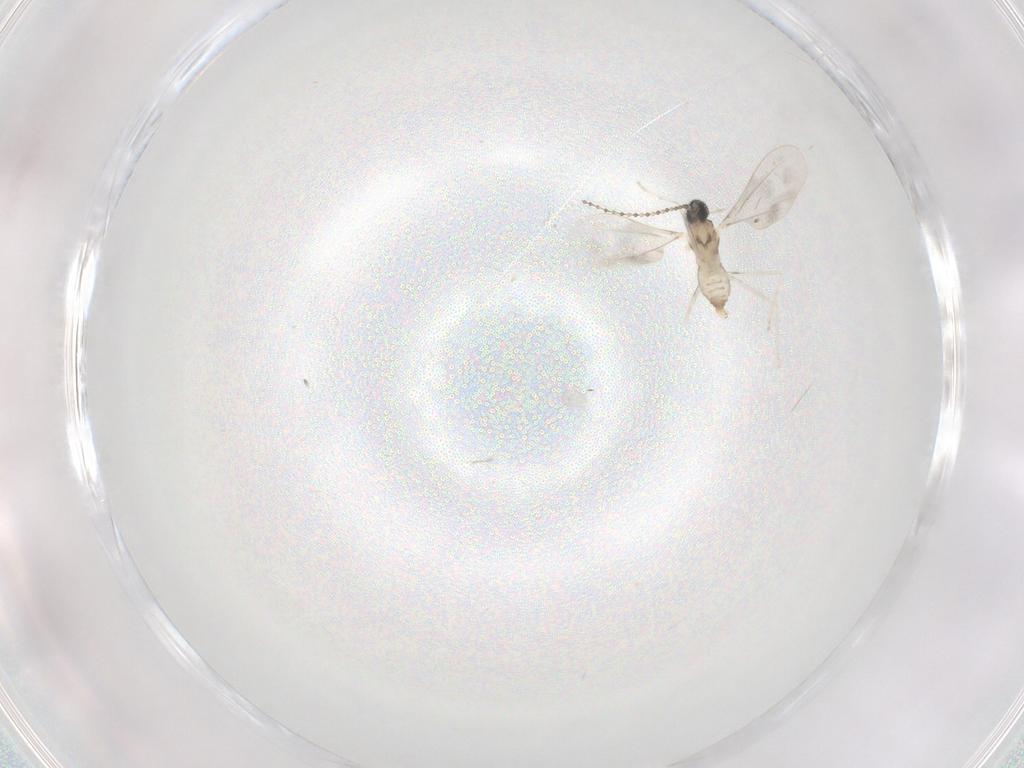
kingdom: Animalia
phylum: Arthropoda
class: Insecta
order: Diptera
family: Cecidomyiidae
